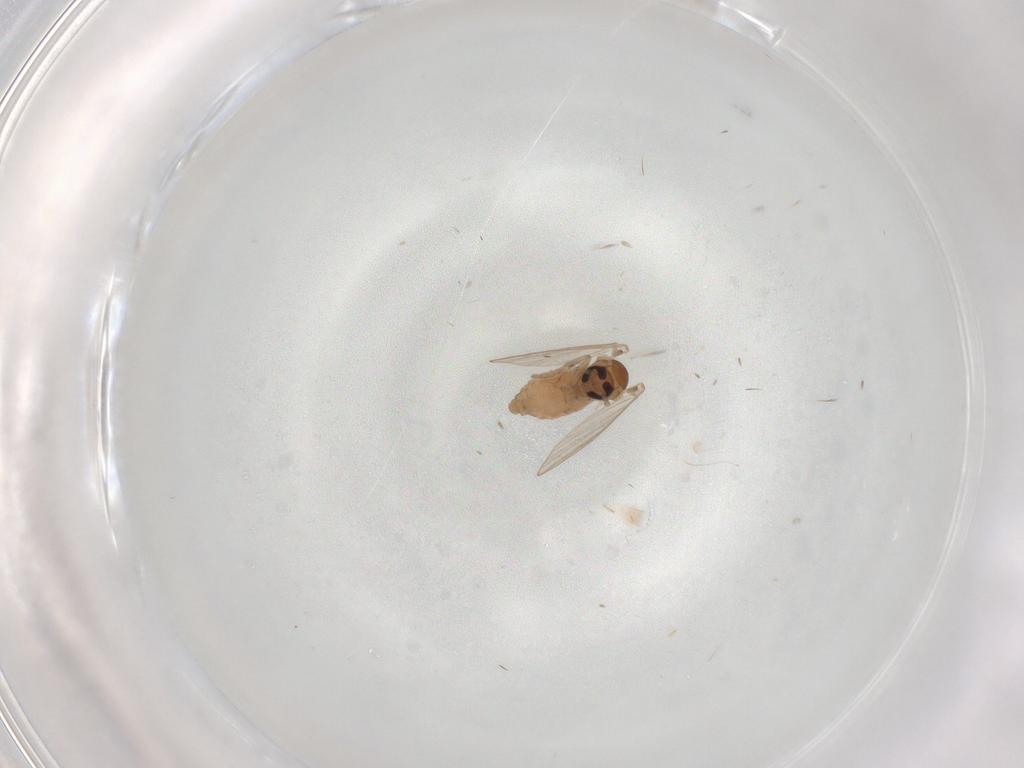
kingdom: Animalia
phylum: Arthropoda
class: Insecta
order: Diptera
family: Psychodidae
